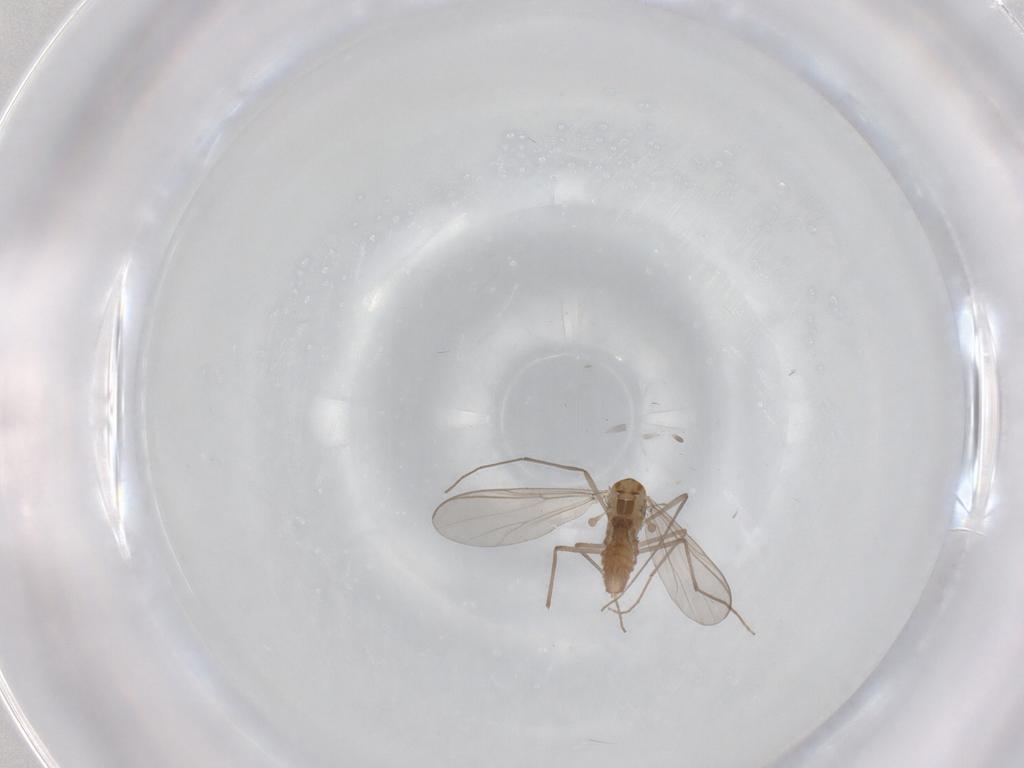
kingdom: Animalia
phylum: Arthropoda
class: Insecta
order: Diptera
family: Chironomidae
